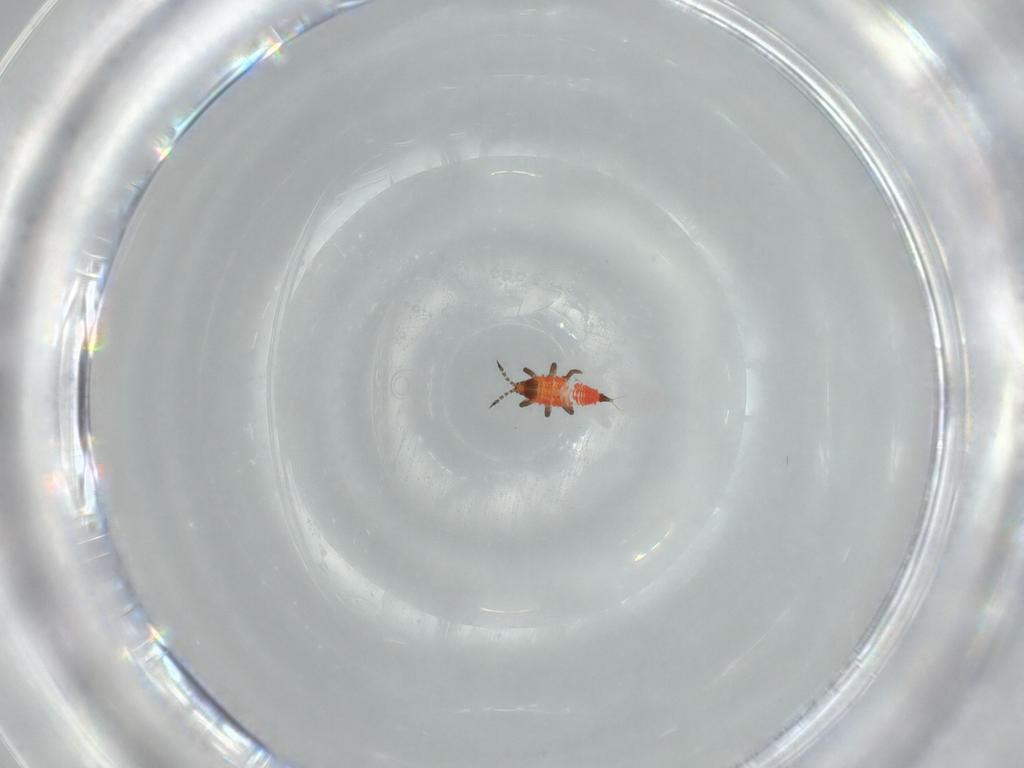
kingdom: Animalia
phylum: Arthropoda
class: Insecta
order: Thysanoptera
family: Phlaeothripidae
